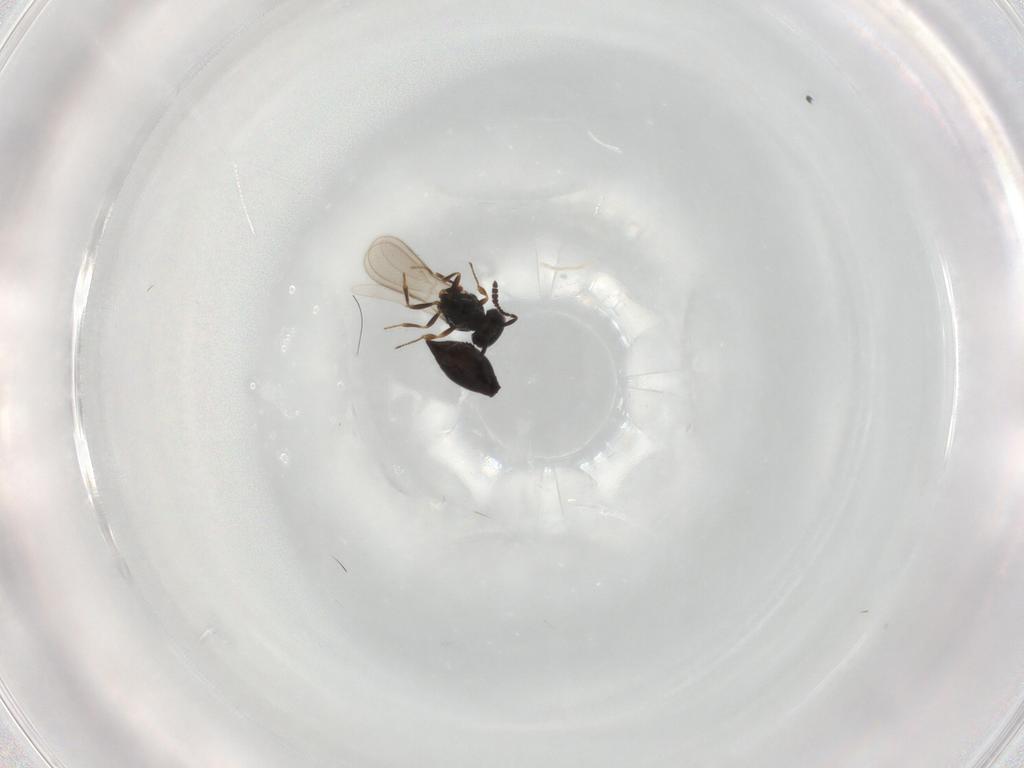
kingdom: Animalia
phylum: Arthropoda
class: Insecta
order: Hymenoptera
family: Scelionidae
